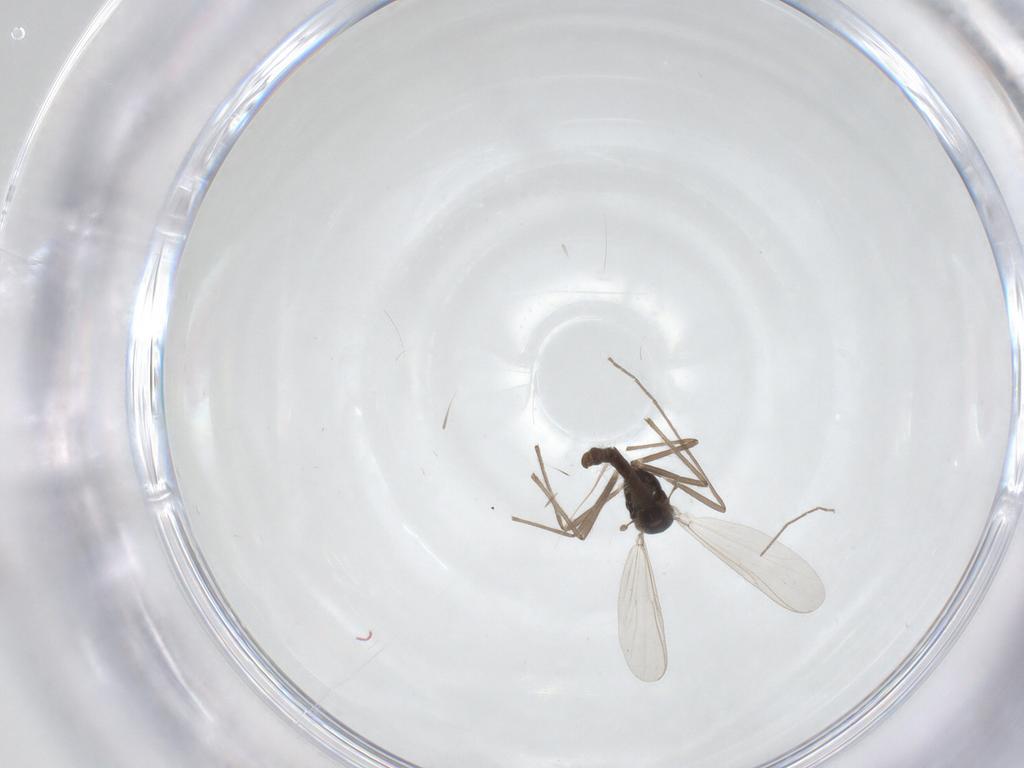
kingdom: Animalia
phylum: Arthropoda
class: Insecta
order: Diptera
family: Chironomidae
